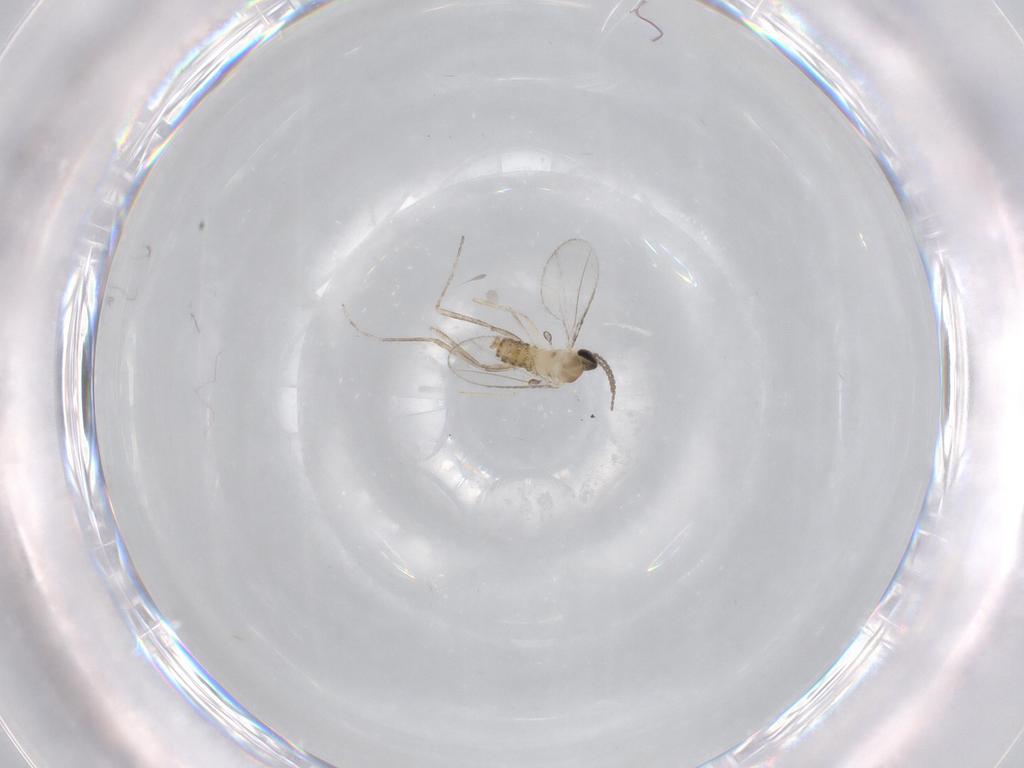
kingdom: Animalia
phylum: Arthropoda
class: Insecta
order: Diptera
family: Cecidomyiidae
